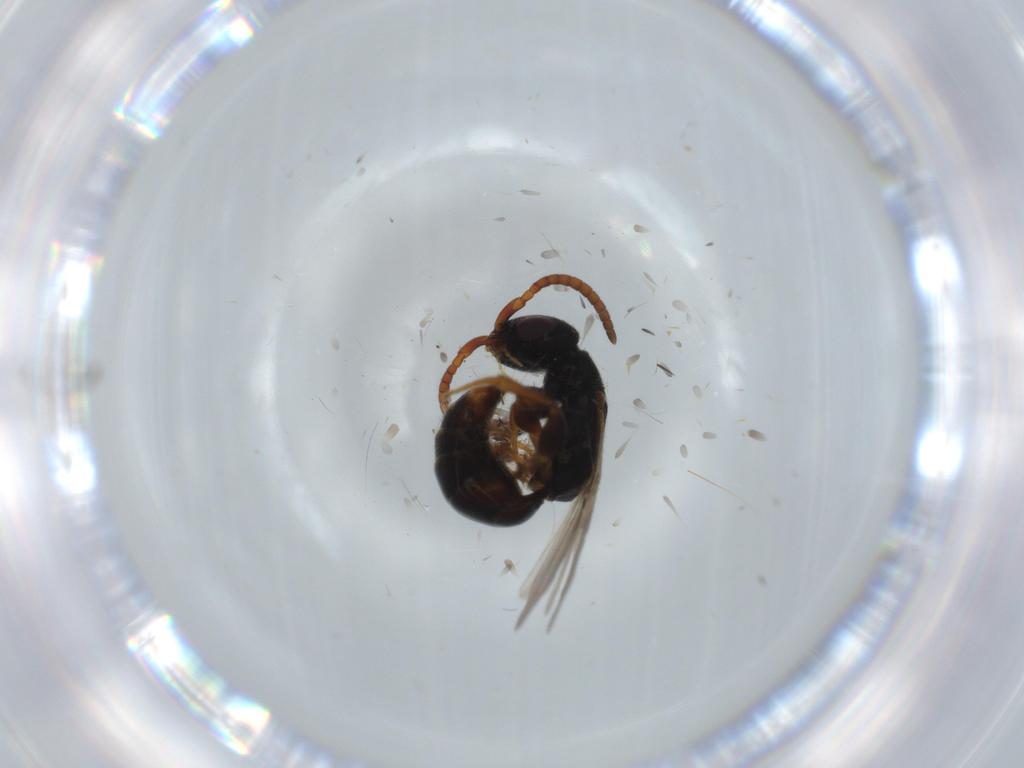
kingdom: Animalia
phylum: Arthropoda
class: Insecta
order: Hymenoptera
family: Bethylidae
